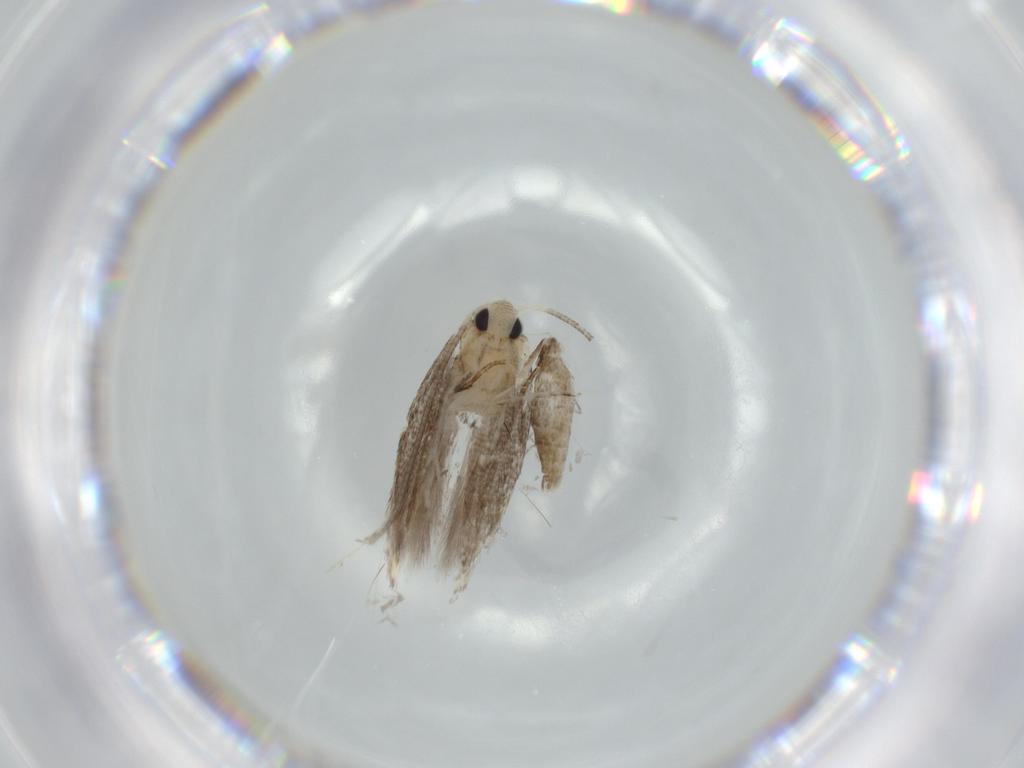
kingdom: Animalia
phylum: Arthropoda
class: Insecta
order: Lepidoptera
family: Lyonetiidae
